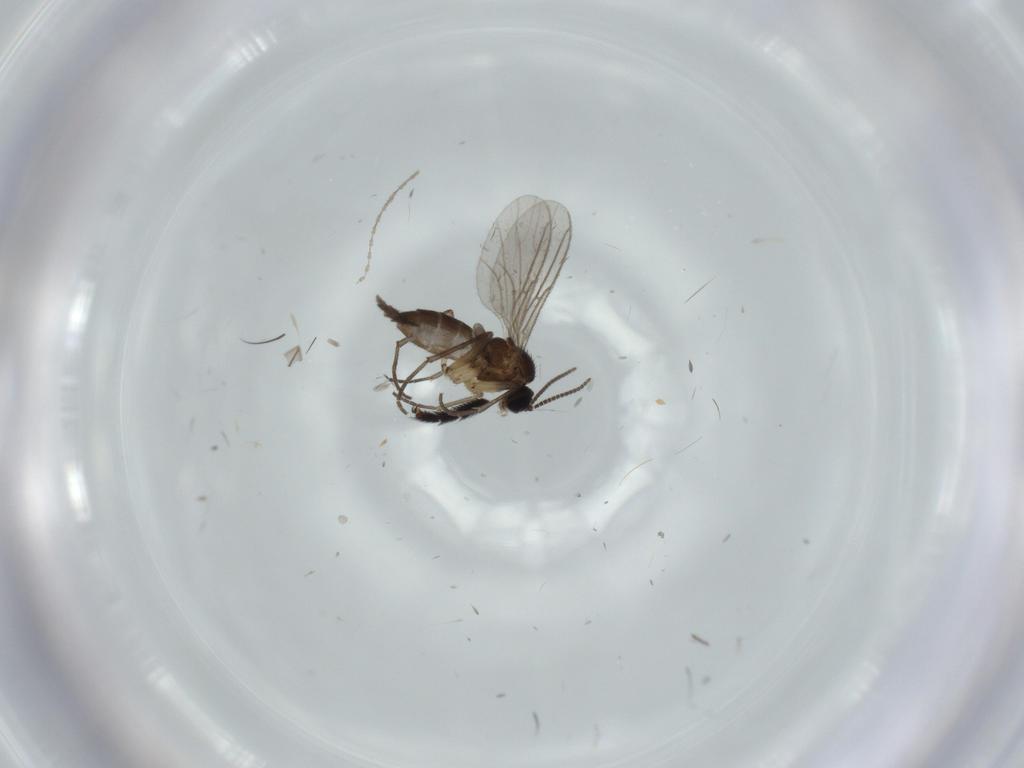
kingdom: Animalia
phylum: Arthropoda
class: Insecta
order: Diptera
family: Sciaridae
